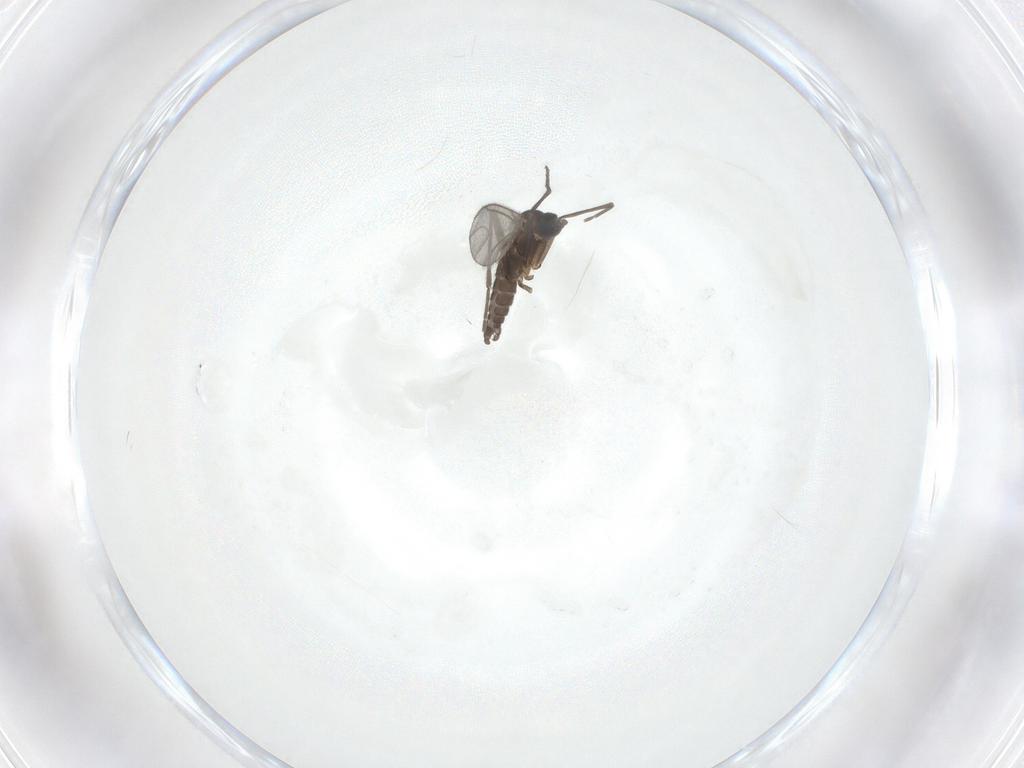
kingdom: Animalia
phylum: Arthropoda
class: Insecta
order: Diptera
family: Sciaridae
